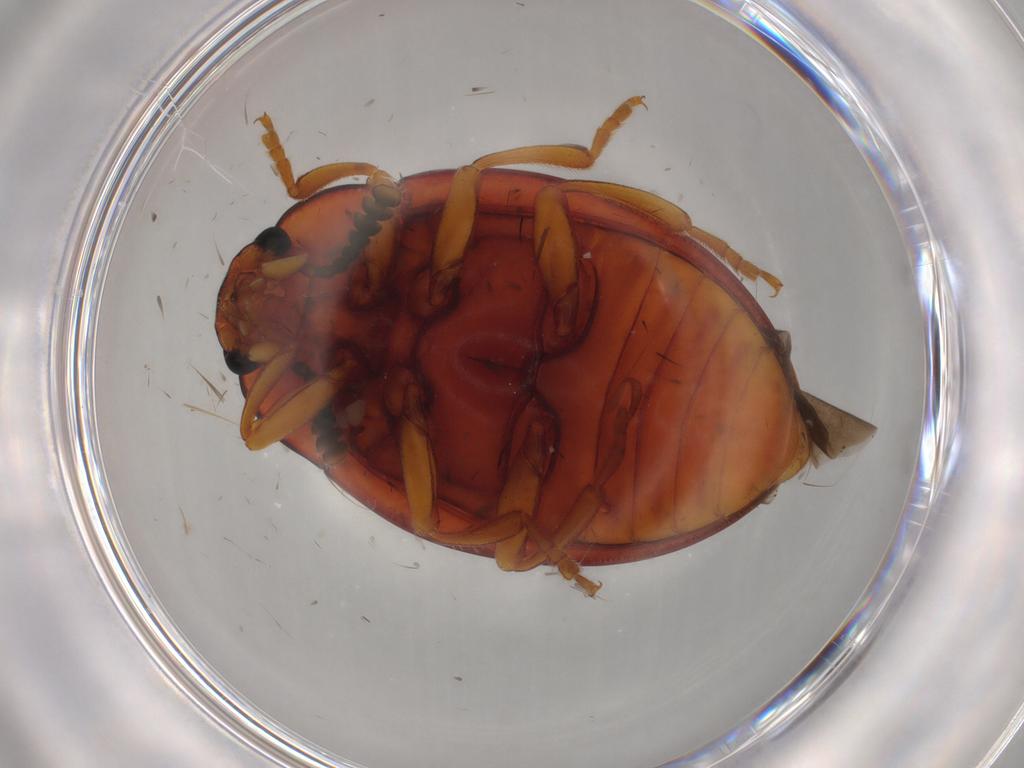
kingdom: Animalia
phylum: Arthropoda
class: Insecta
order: Coleoptera
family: Erotylidae
